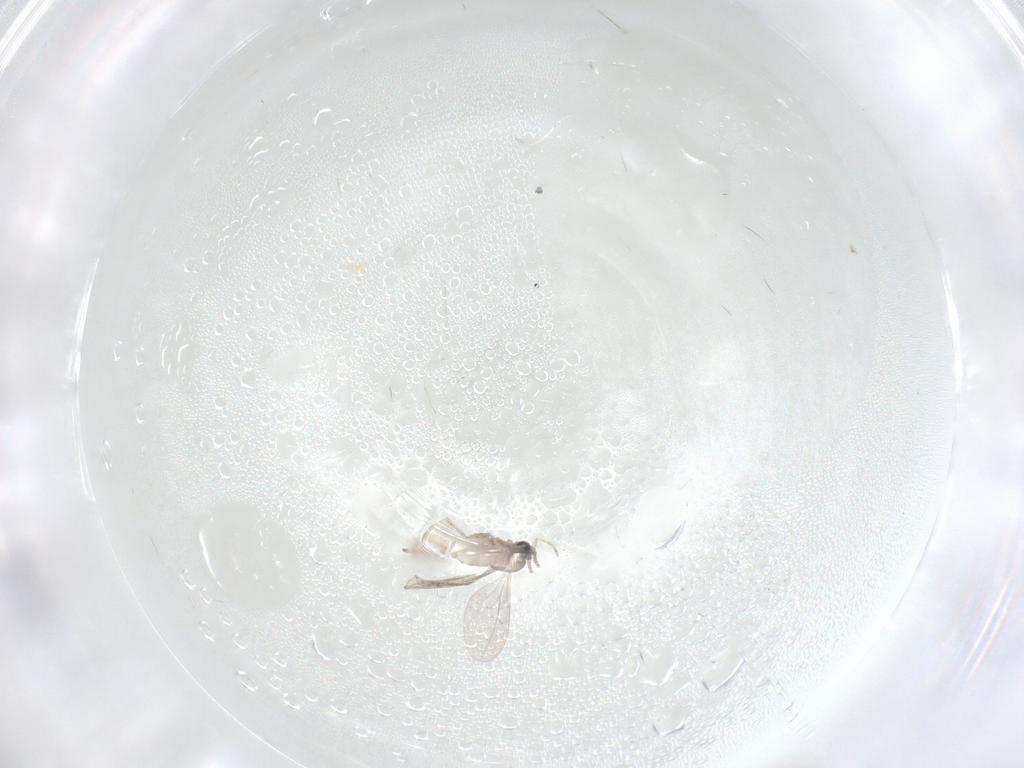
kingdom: Animalia
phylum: Arthropoda
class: Insecta
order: Diptera
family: Chironomidae
